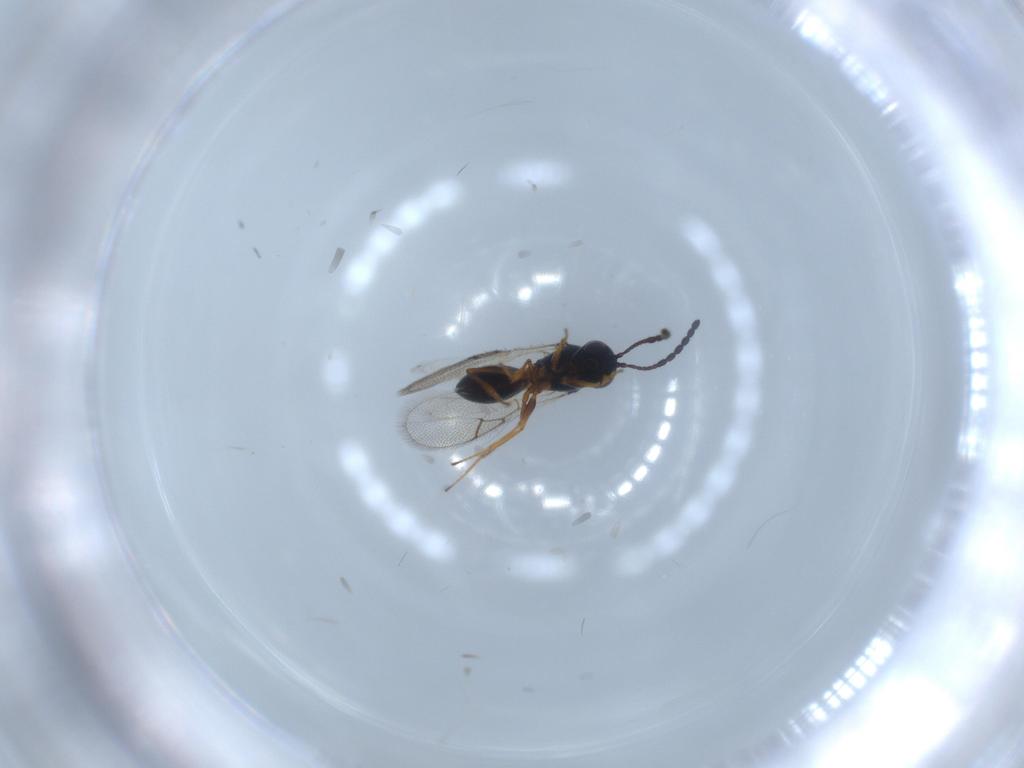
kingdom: Animalia
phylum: Arthropoda
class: Insecta
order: Hymenoptera
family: Figitidae
